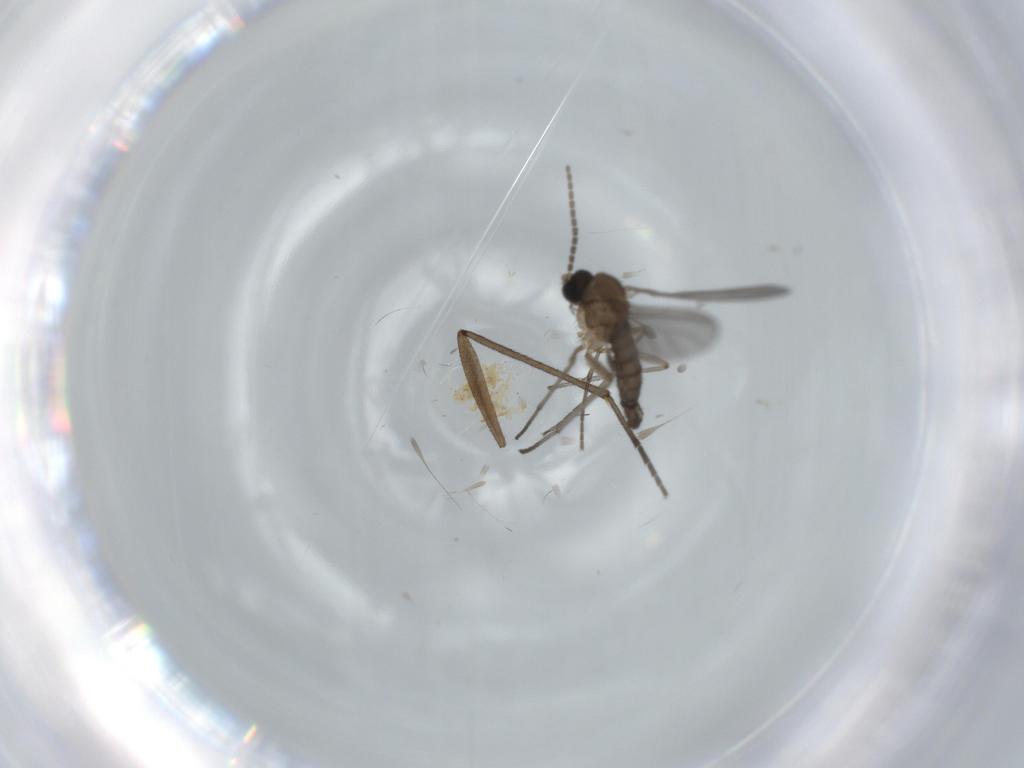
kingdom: Animalia
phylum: Arthropoda
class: Insecta
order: Diptera
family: Sciaridae
